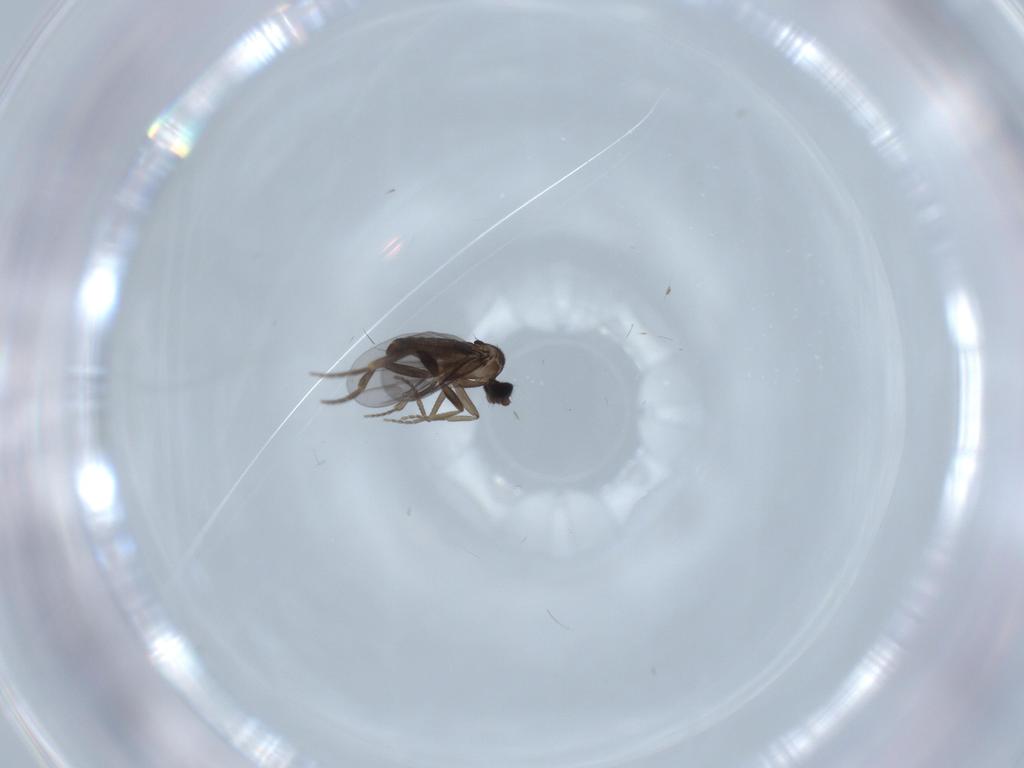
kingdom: Animalia
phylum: Arthropoda
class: Insecta
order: Diptera
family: Phoridae
